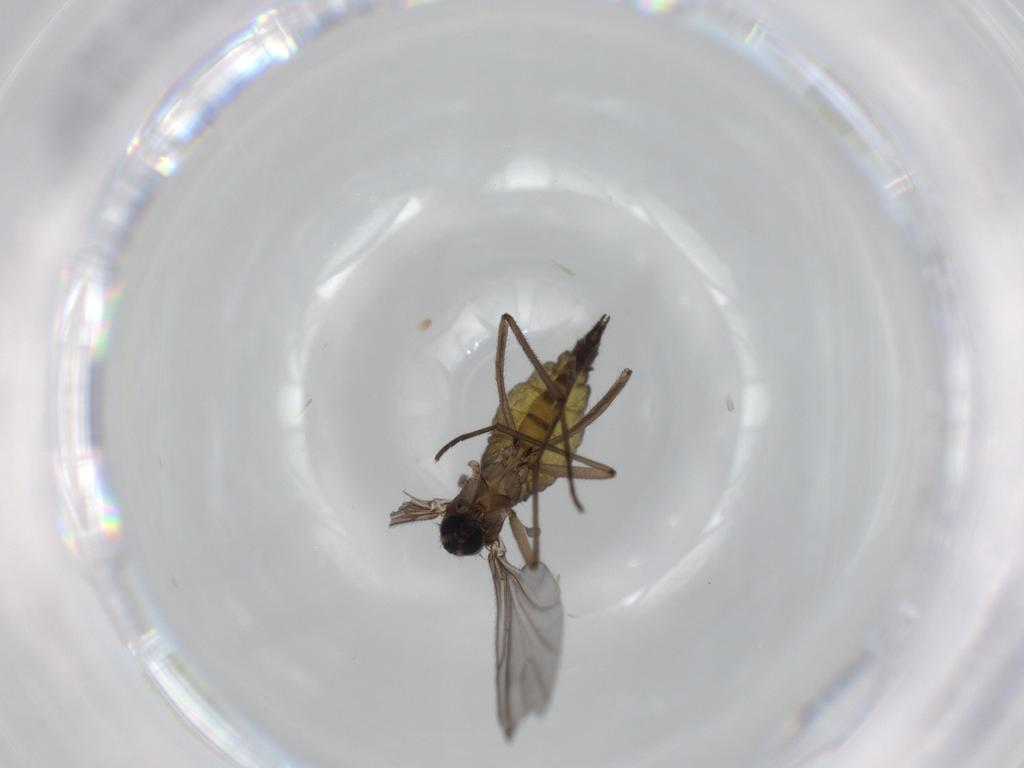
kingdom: Animalia
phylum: Arthropoda
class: Insecta
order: Diptera
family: Sciaridae
